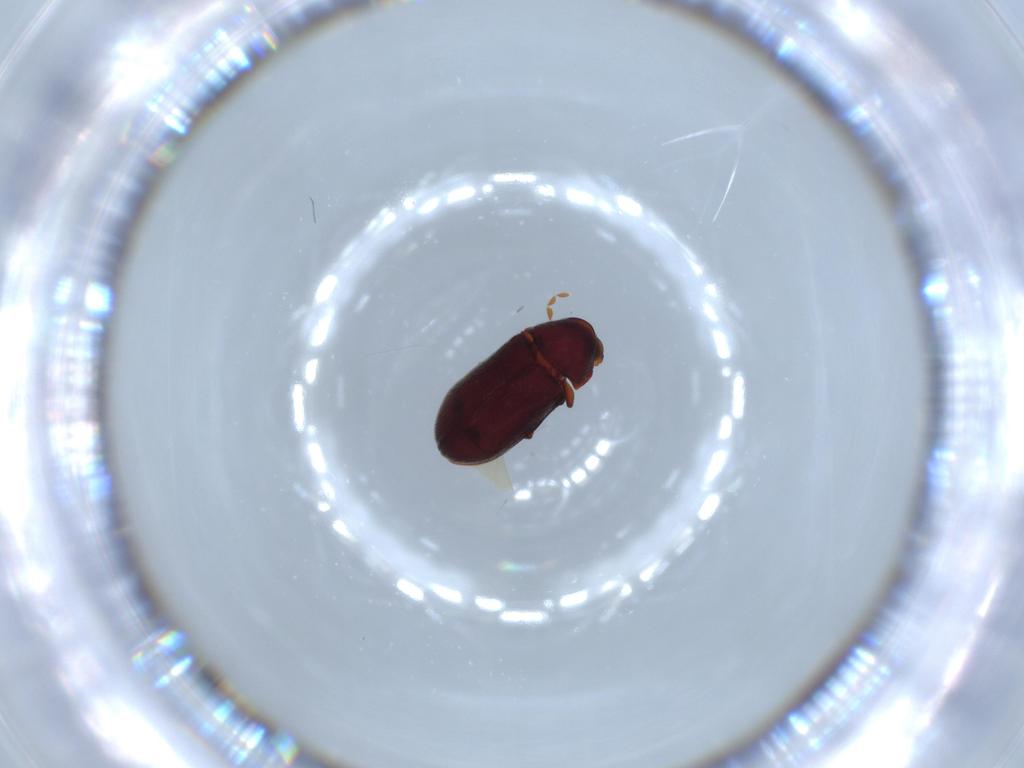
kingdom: Animalia
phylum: Arthropoda
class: Insecta
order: Coleoptera
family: Ptinidae
